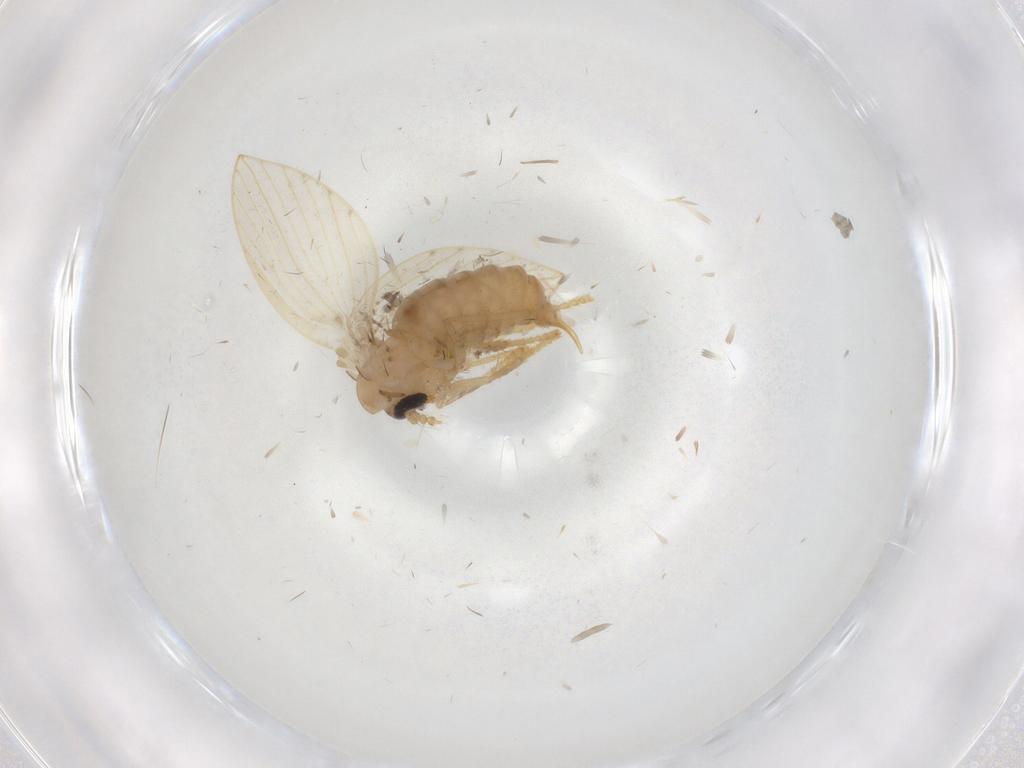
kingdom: Animalia
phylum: Arthropoda
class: Insecta
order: Diptera
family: Psychodidae
